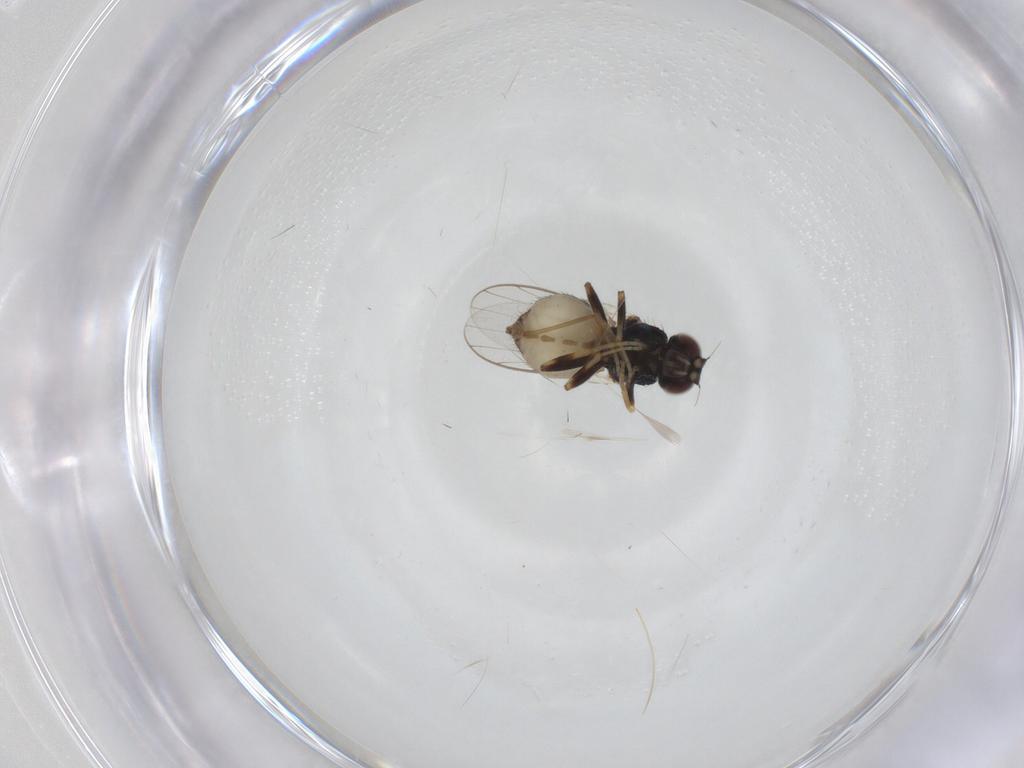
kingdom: Animalia
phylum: Arthropoda
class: Insecta
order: Diptera
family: Chloropidae
